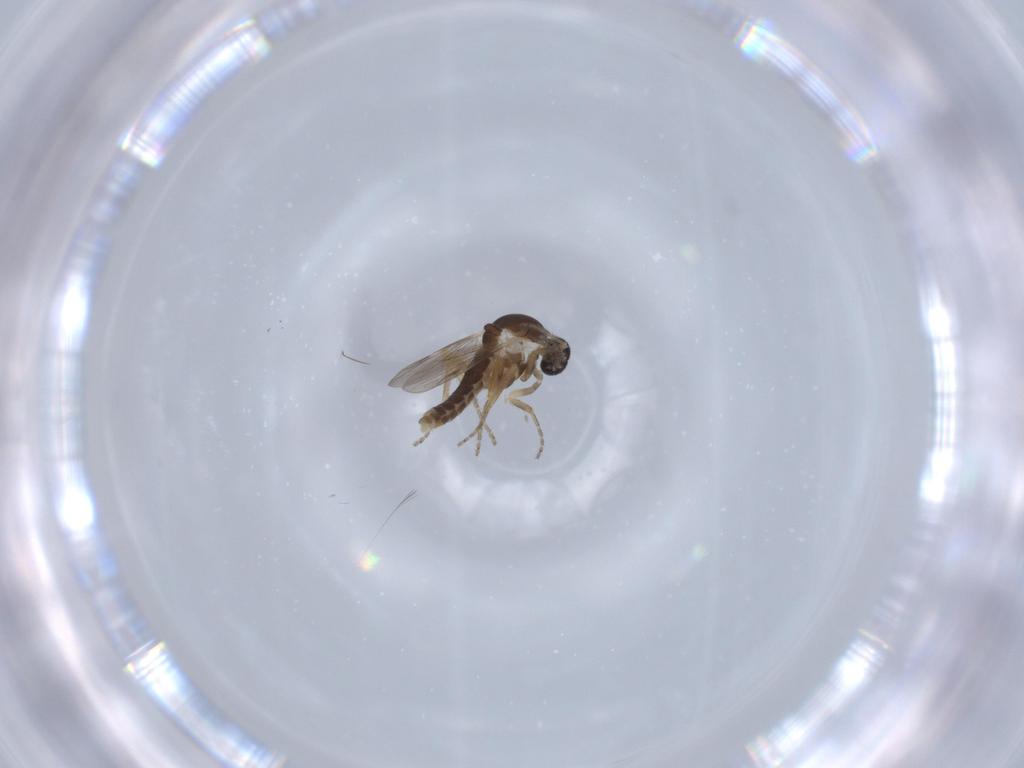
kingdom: Animalia
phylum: Arthropoda
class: Insecta
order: Diptera
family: Ceratopogonidae
